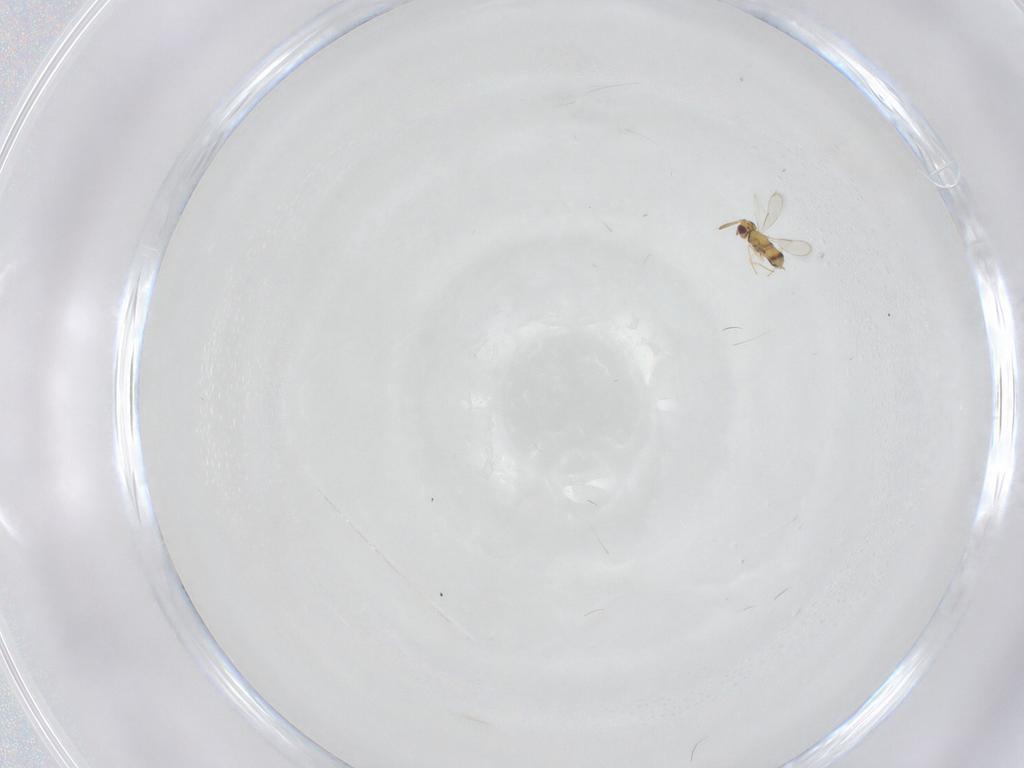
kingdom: Animalia
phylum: Arthropoda
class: Insecta
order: Hymenoptera
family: Aphelinidae
